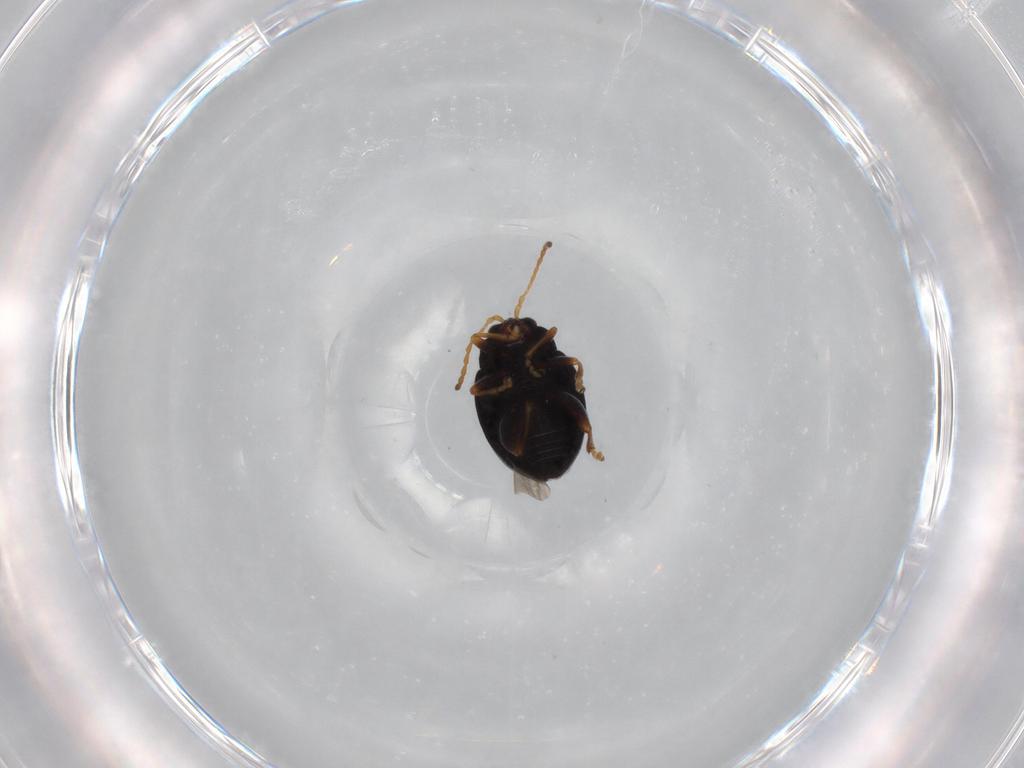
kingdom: Animalia
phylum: Arthropoda
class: Insecta
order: Coleoptera
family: Chrysomelidae
